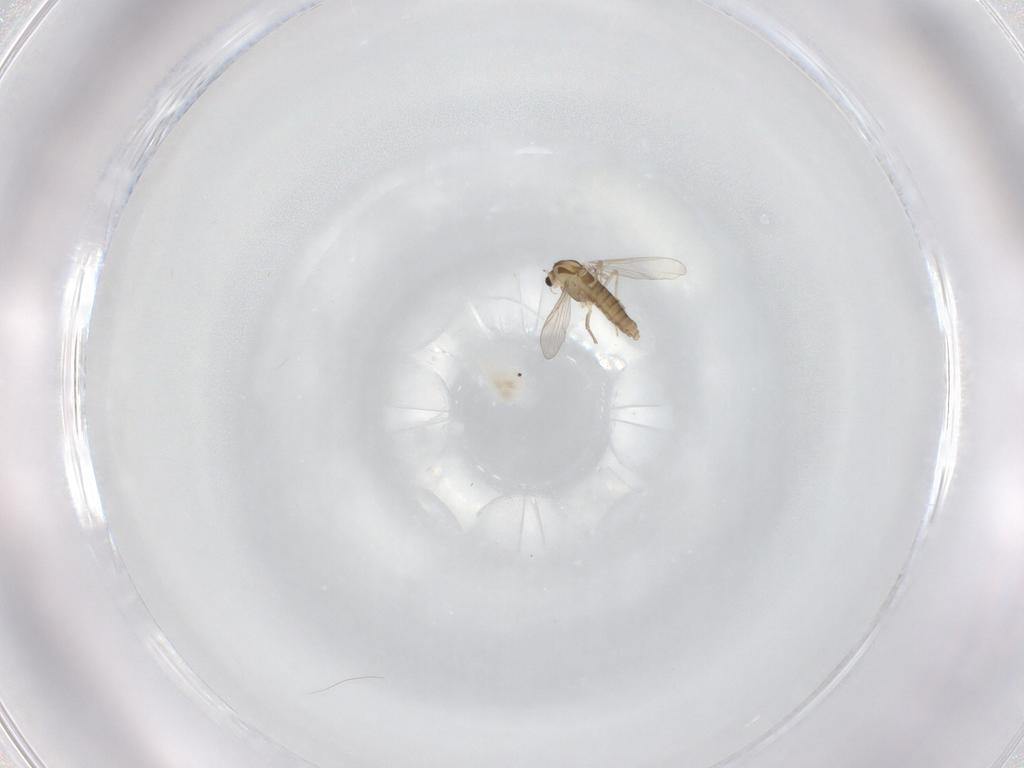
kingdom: Animalia
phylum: Arthropoda
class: Insecta
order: Diptera
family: Chironomidae
